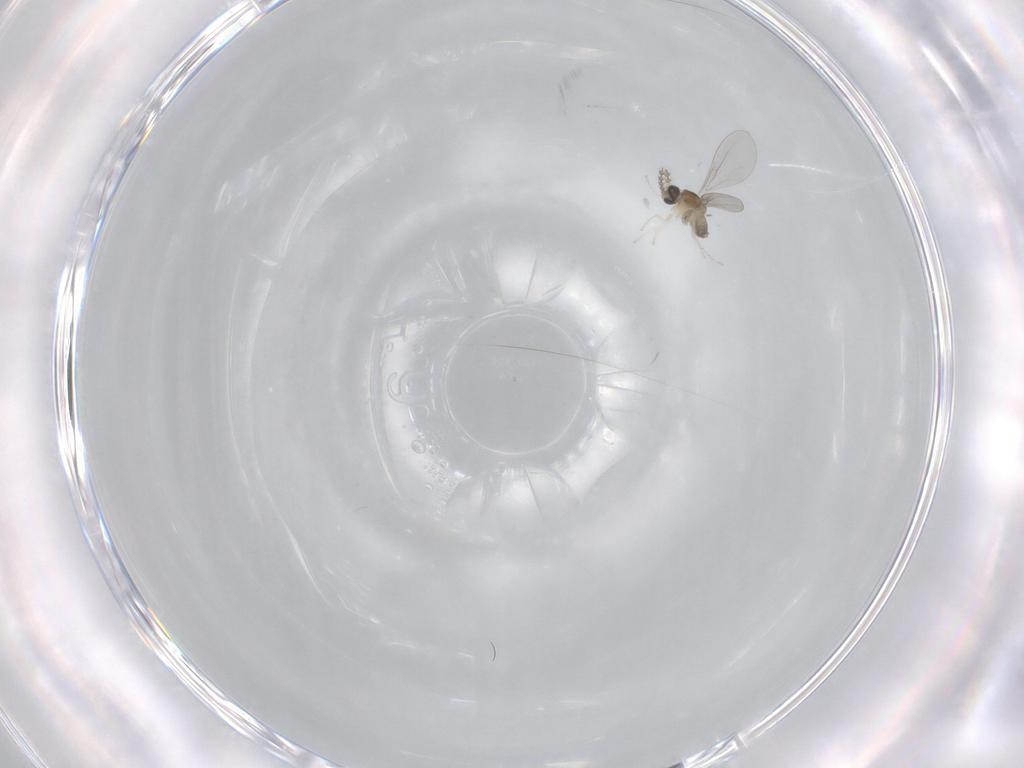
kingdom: Animalia
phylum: Arthropoda
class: Insecta
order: Diptera
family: Cecidomyiidae
